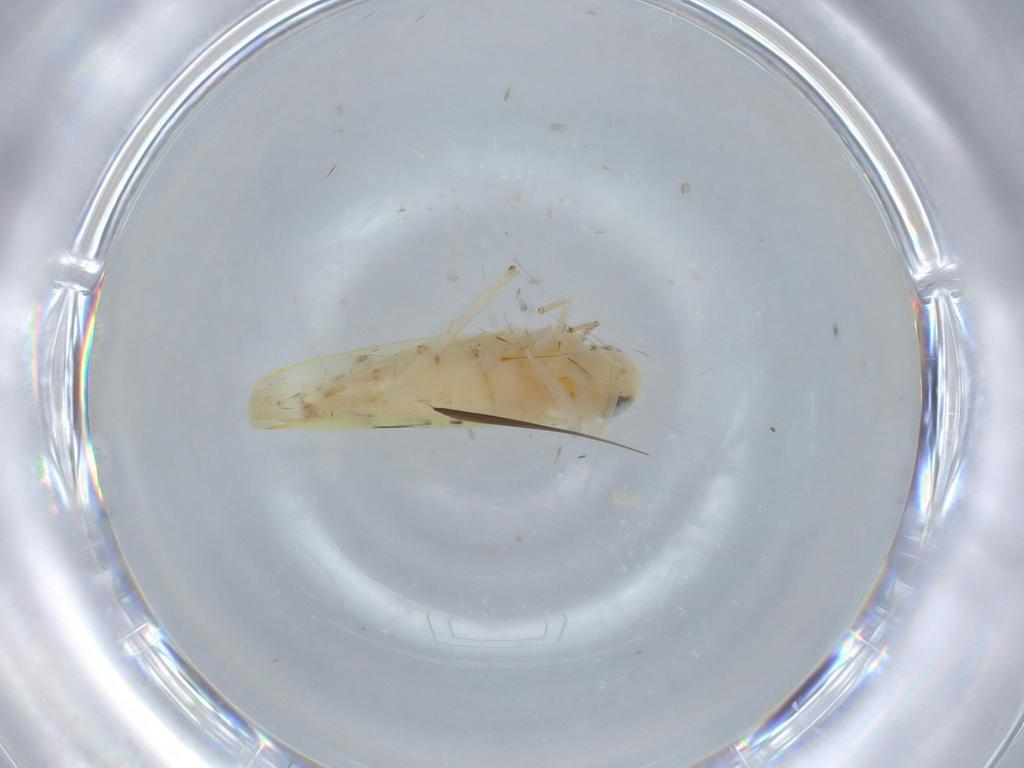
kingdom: Animalia
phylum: Arthropoda
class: Insecta
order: Hemiptera
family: Cicadellidae
